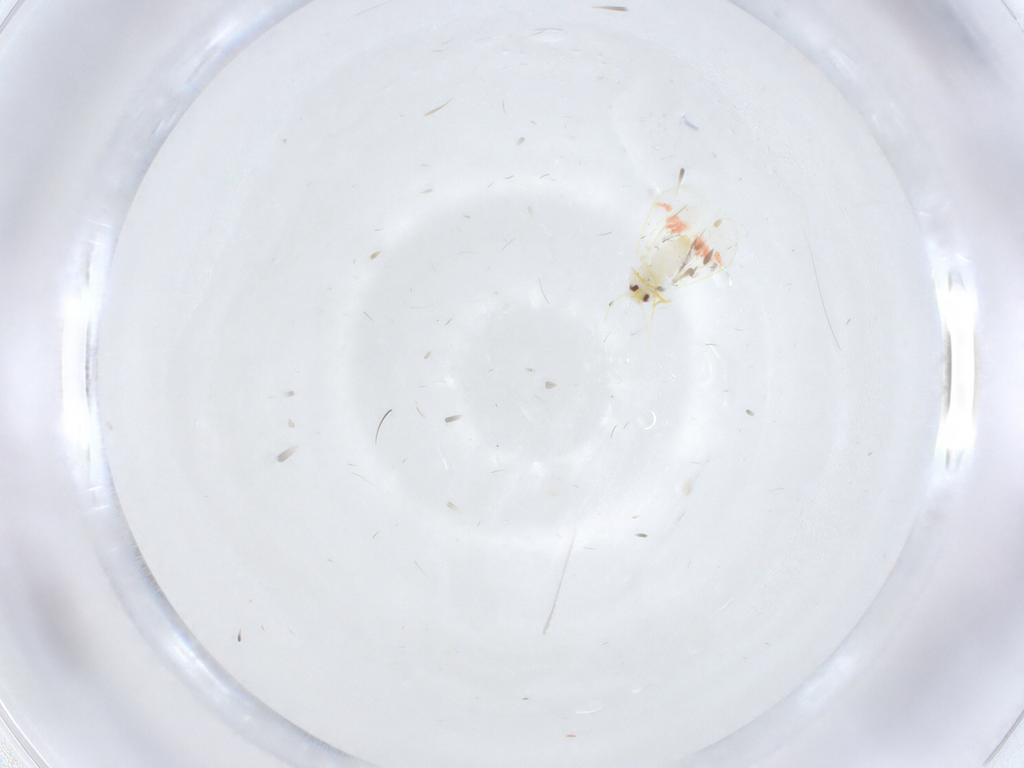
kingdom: Animalia
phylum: Arthropoda
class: Insecta
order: Hemiptera
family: Aleyrodidae
